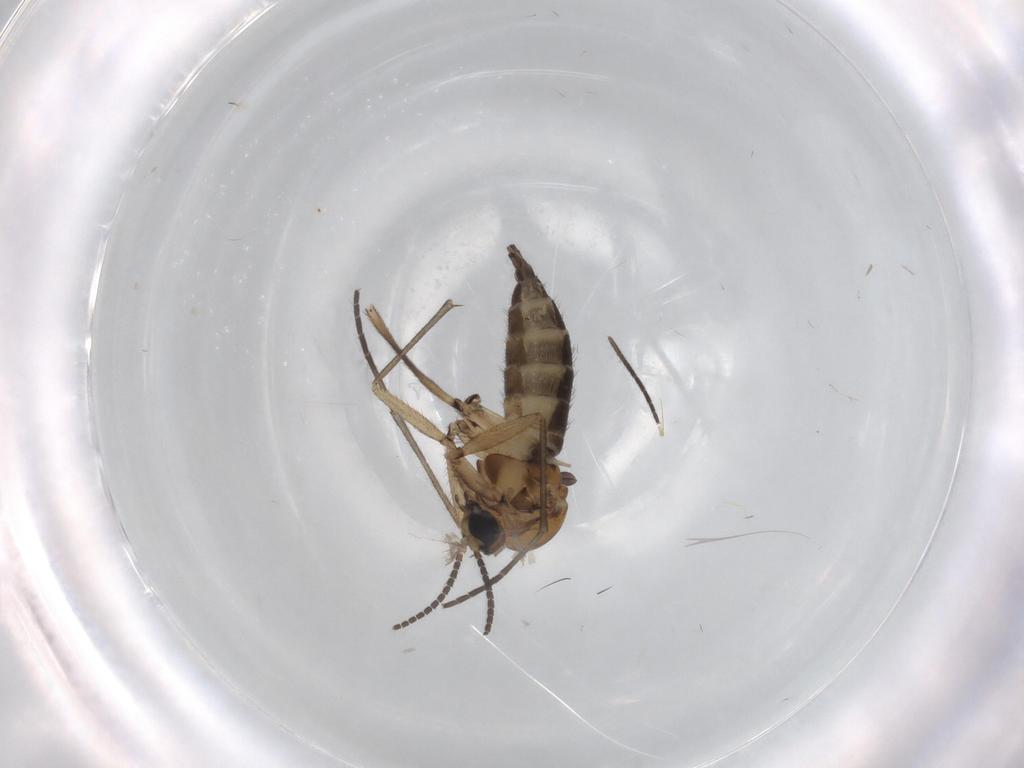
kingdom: Animalia
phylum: Arthropoda
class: Insecta
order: Diptera
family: Sciaridae
